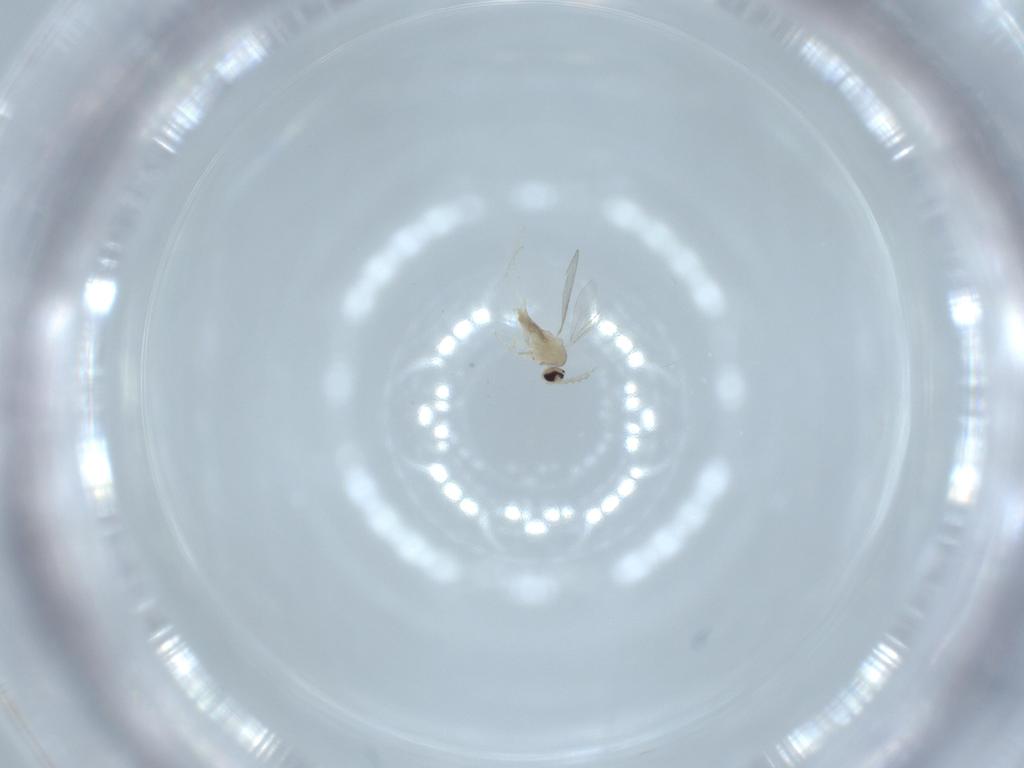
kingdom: Animalia
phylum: Arthropoda
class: Insecta
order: Diptera
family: Cecidomyiidae
